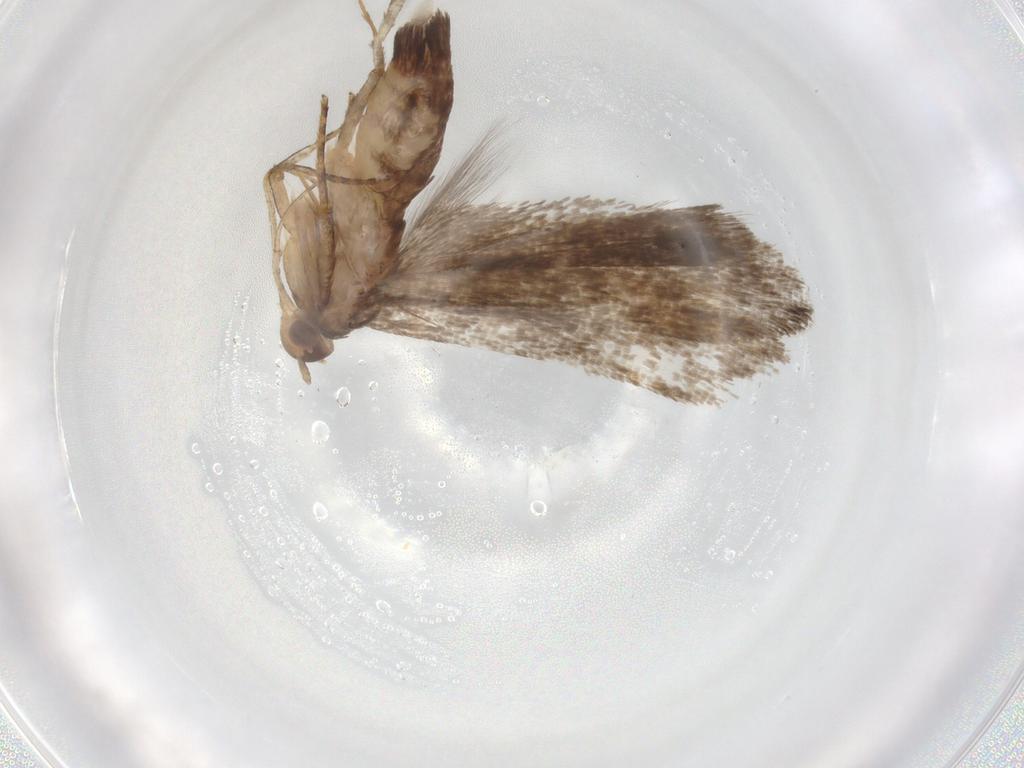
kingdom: Animalia
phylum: Arthropoda
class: Insecta
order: Lepidoptera
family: Gelechiidae
